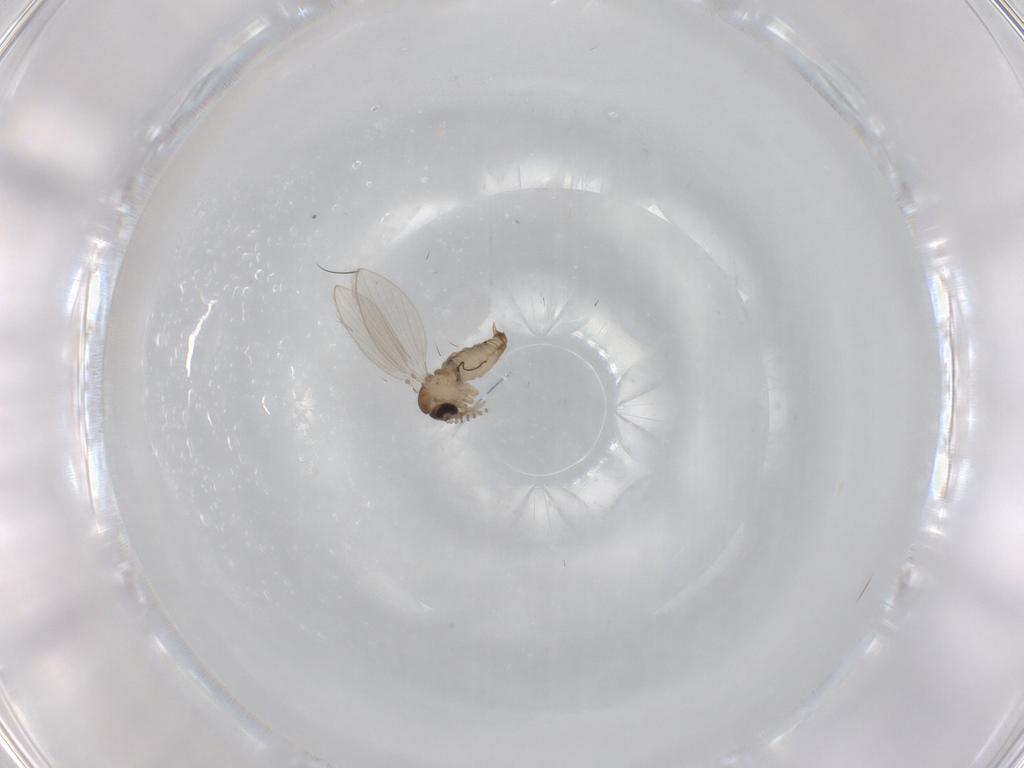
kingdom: Animalia
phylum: Arthropoda
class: Insecta
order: Diptera
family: Psychodidae
